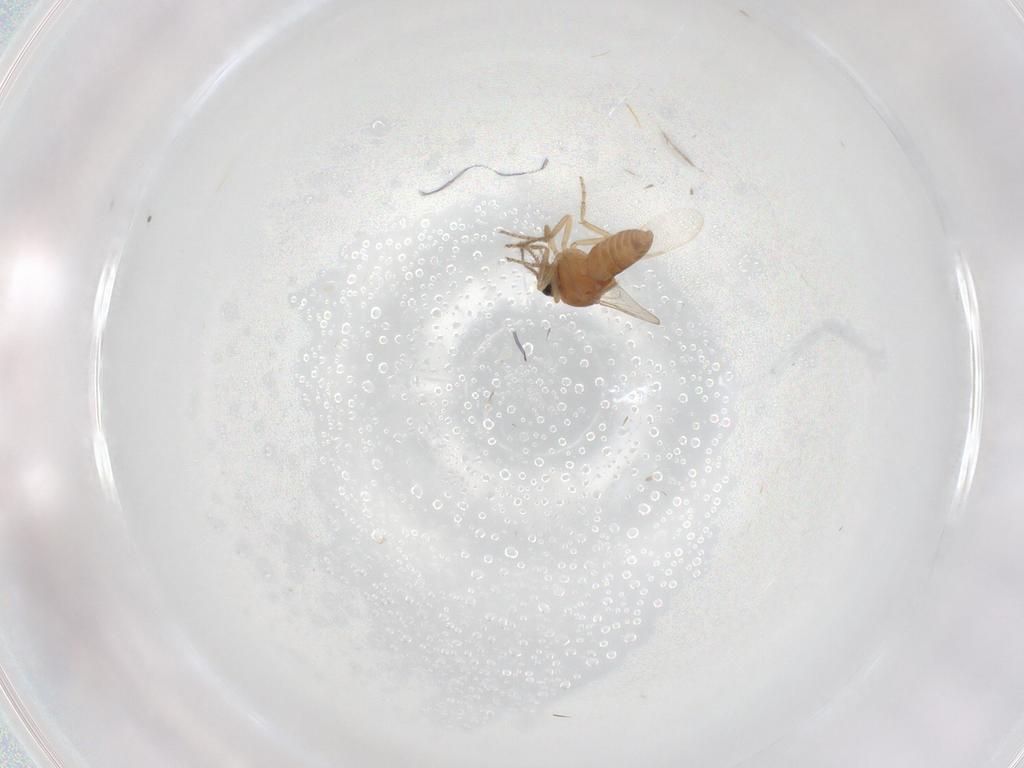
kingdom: Animalia
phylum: Arthropoda
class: Insecta
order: Diptera
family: Ceratopogonidae
